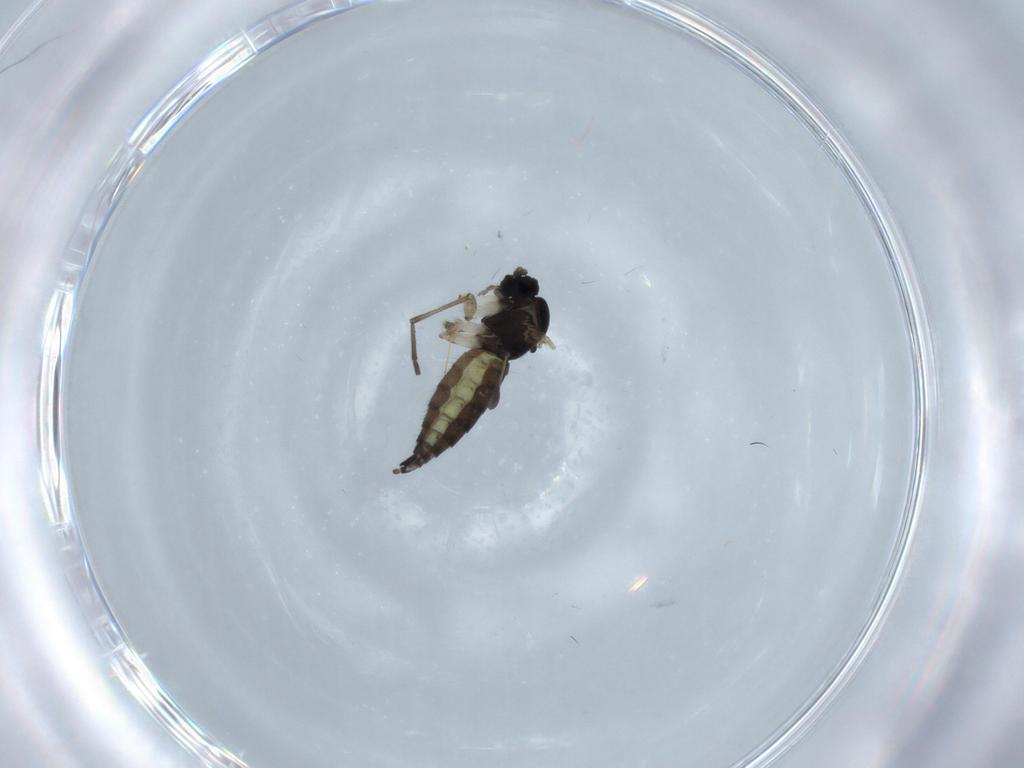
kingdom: Animalia
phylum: Arthropoda
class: Insecta
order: Diptera
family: Sciaridae
